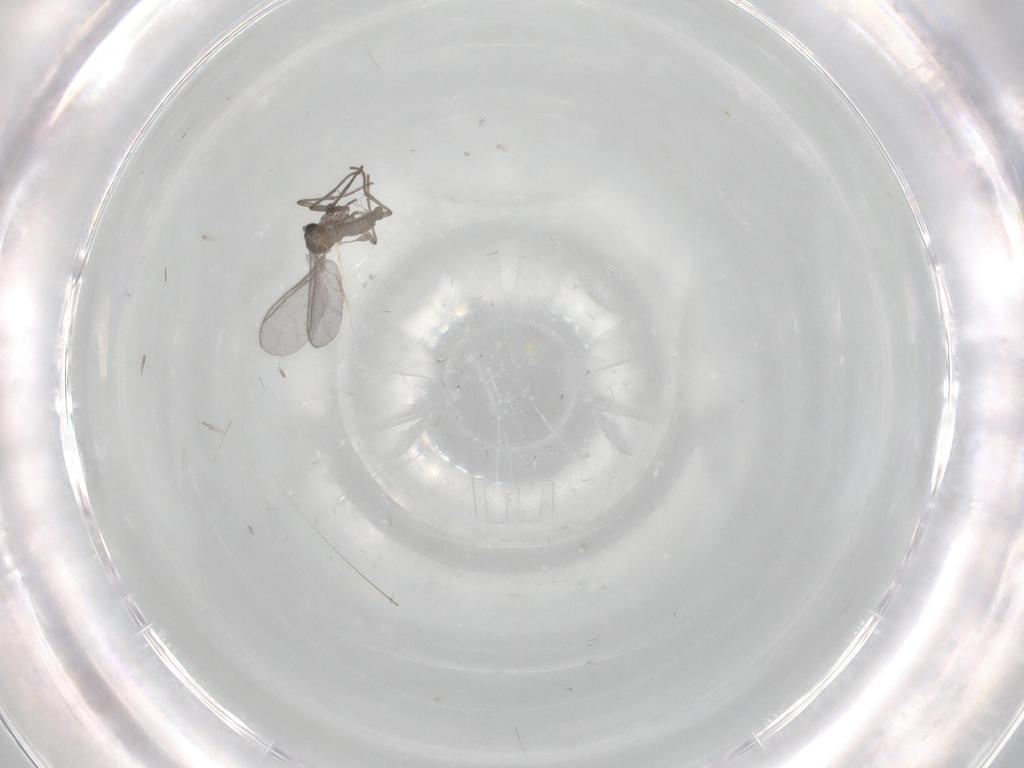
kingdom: Animalia
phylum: Arthropoda
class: Insecta
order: Diptera
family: Sciaridae
